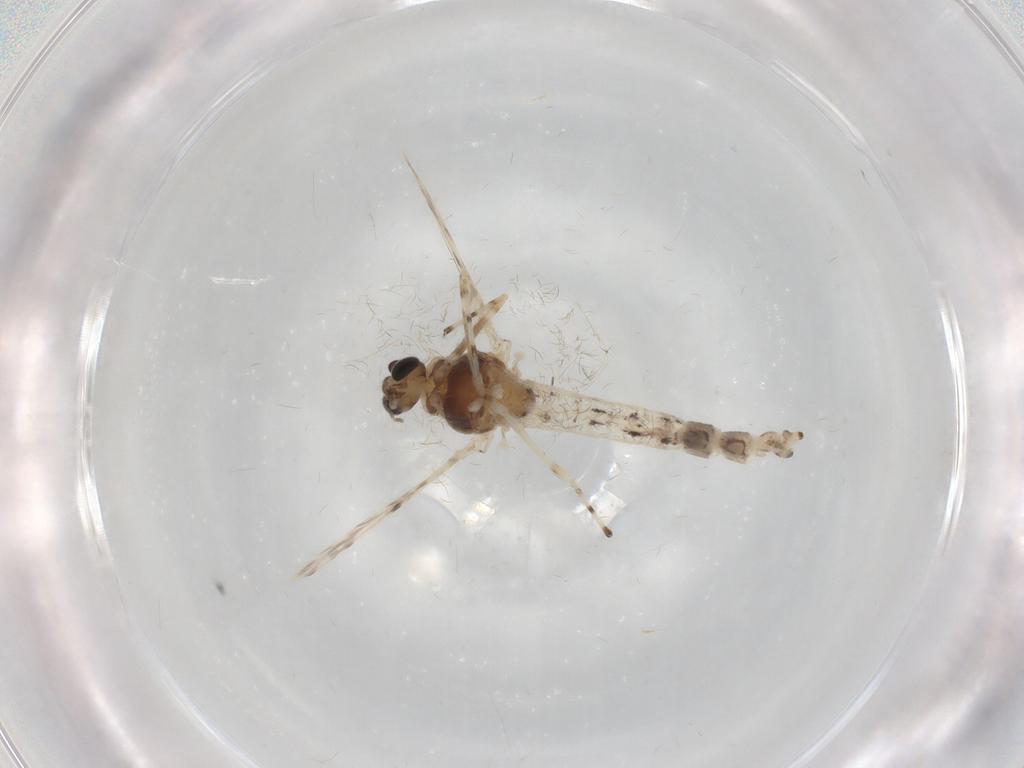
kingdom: Animalia
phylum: Arthropoda
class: Insecta
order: Diptera
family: Chironomidae
